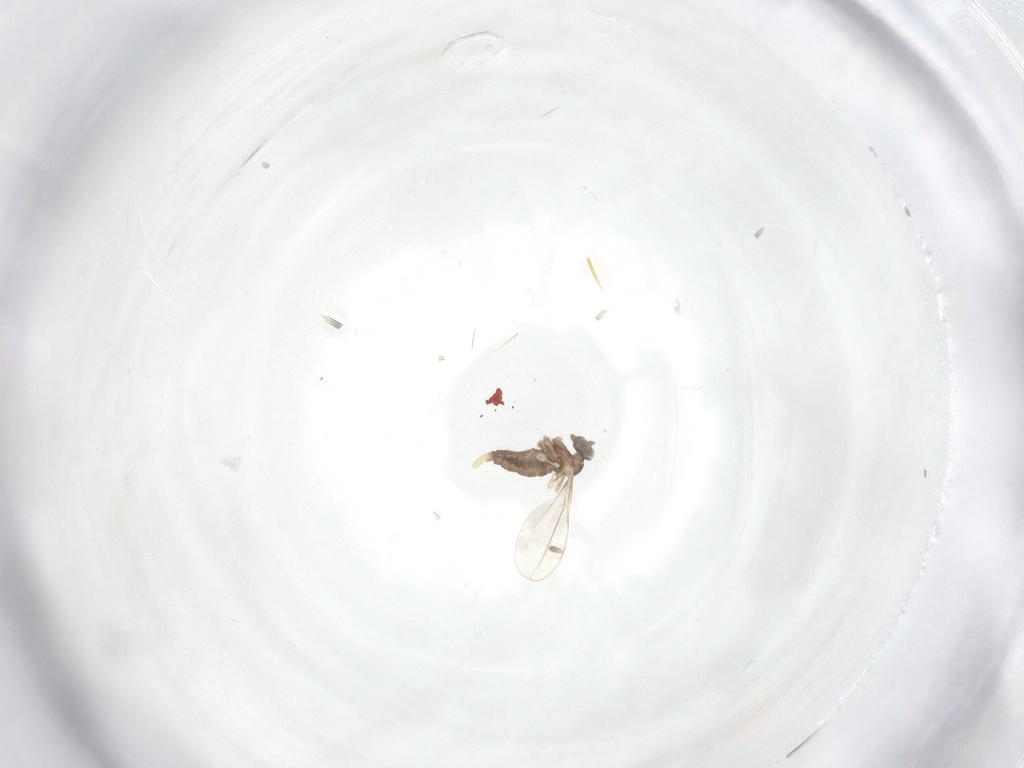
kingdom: Animalia
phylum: Arthropoda
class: Insecta
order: Diptera
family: Cecidomyiidae
